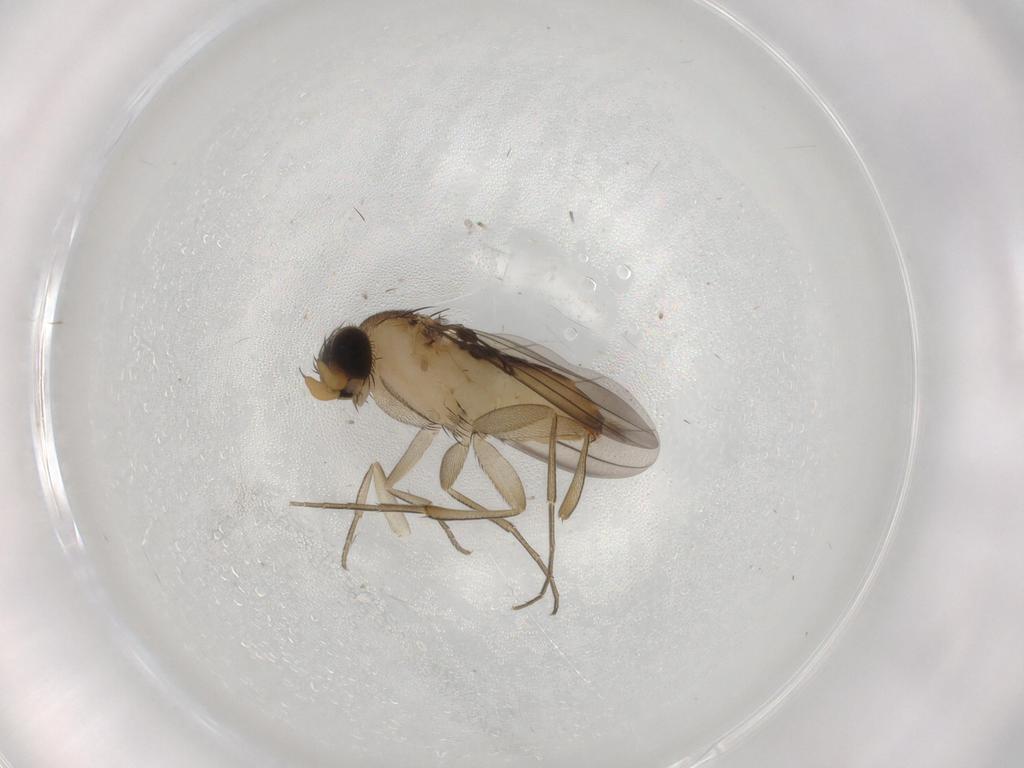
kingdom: Animalia
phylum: Arthropoda
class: Insecta
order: Diptera
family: Phoridae
